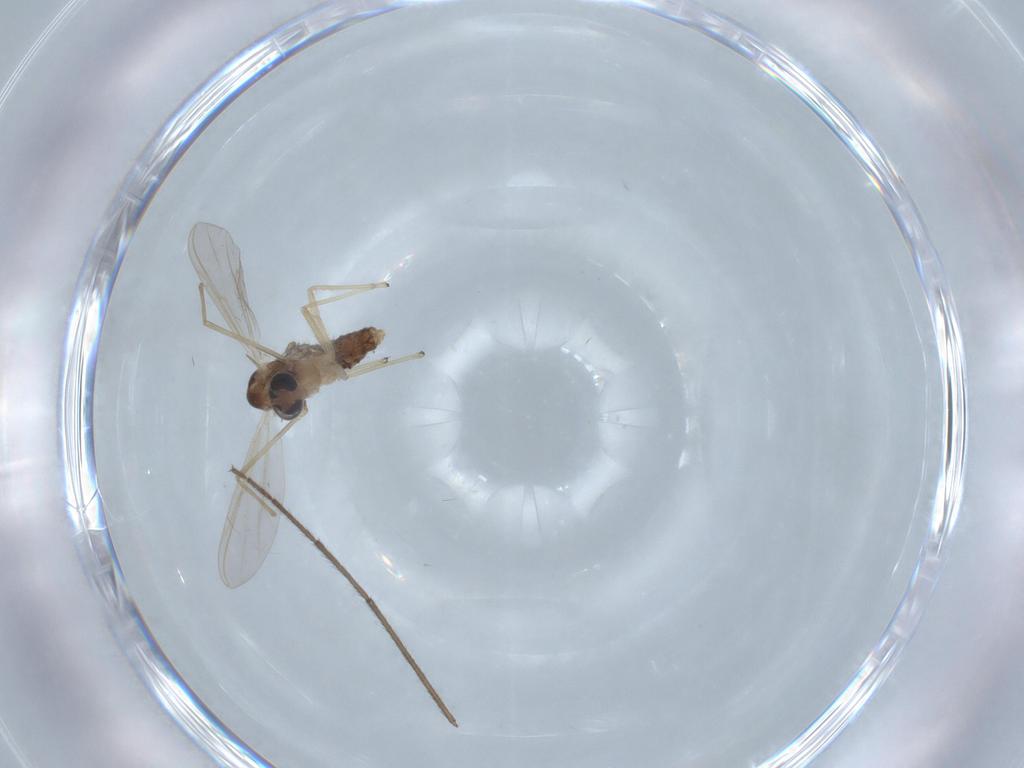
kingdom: Animalia
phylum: Arthropoda
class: Insecta
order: Diptera
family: Chironomidae
